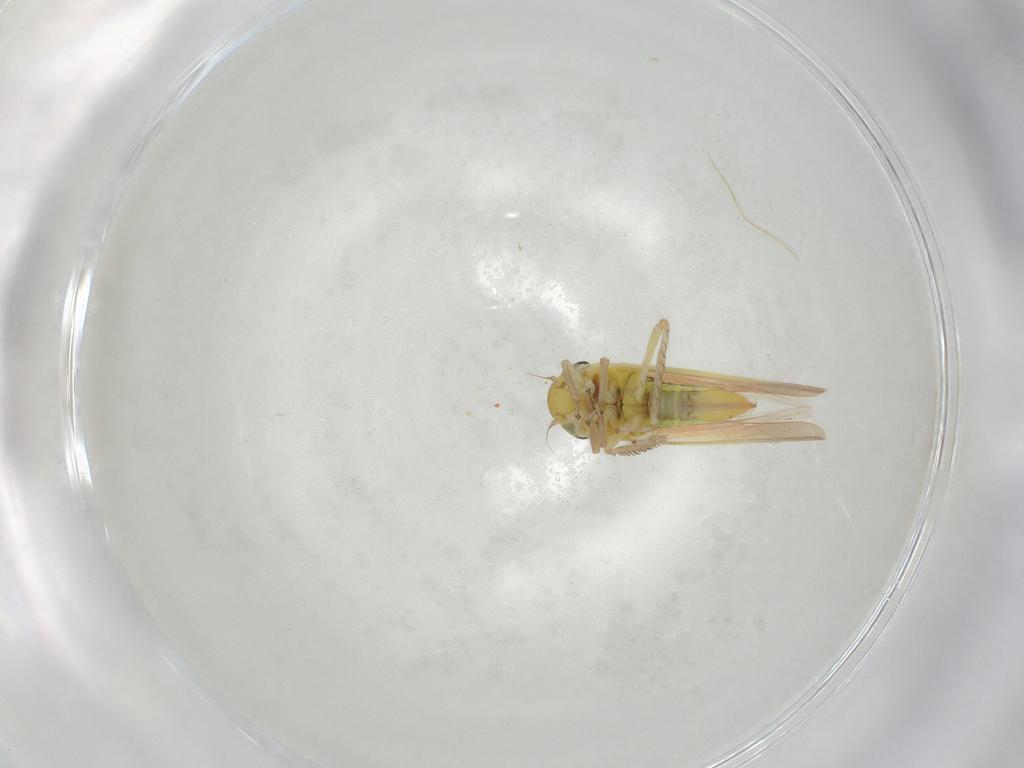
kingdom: Animalia
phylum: Arthropoda
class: Insecta
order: Hemiptera
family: Cicadellidae
